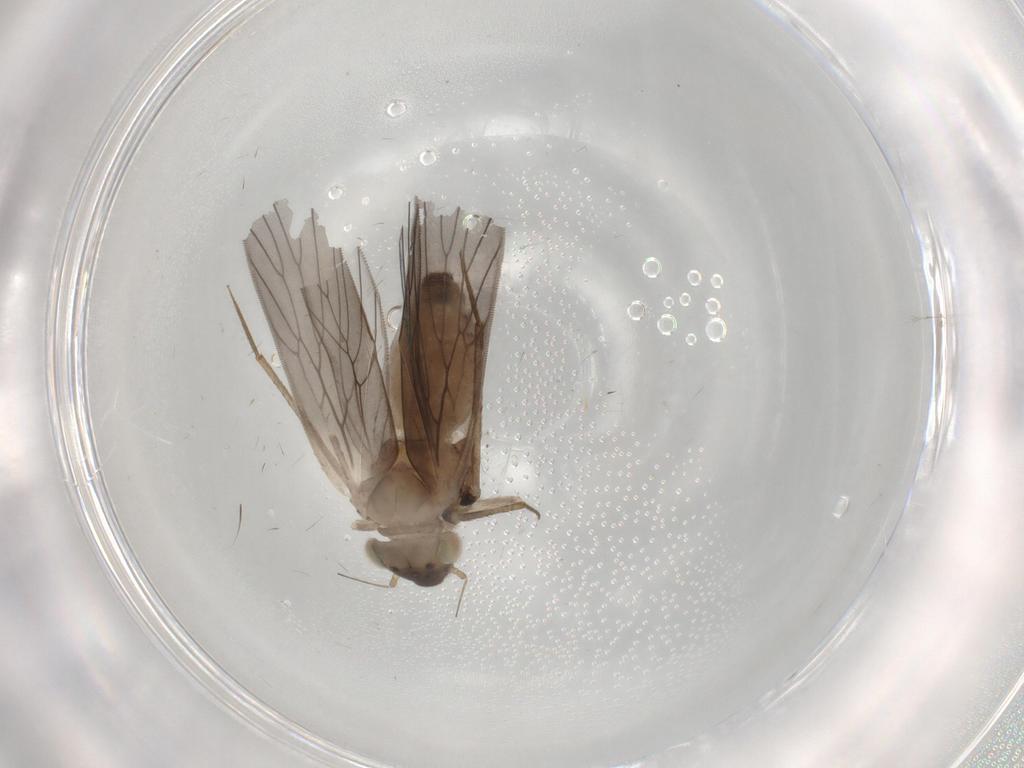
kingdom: Animalia
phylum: Arthropoda
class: Insecta
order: Psocodea
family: Lepidopsocidae
